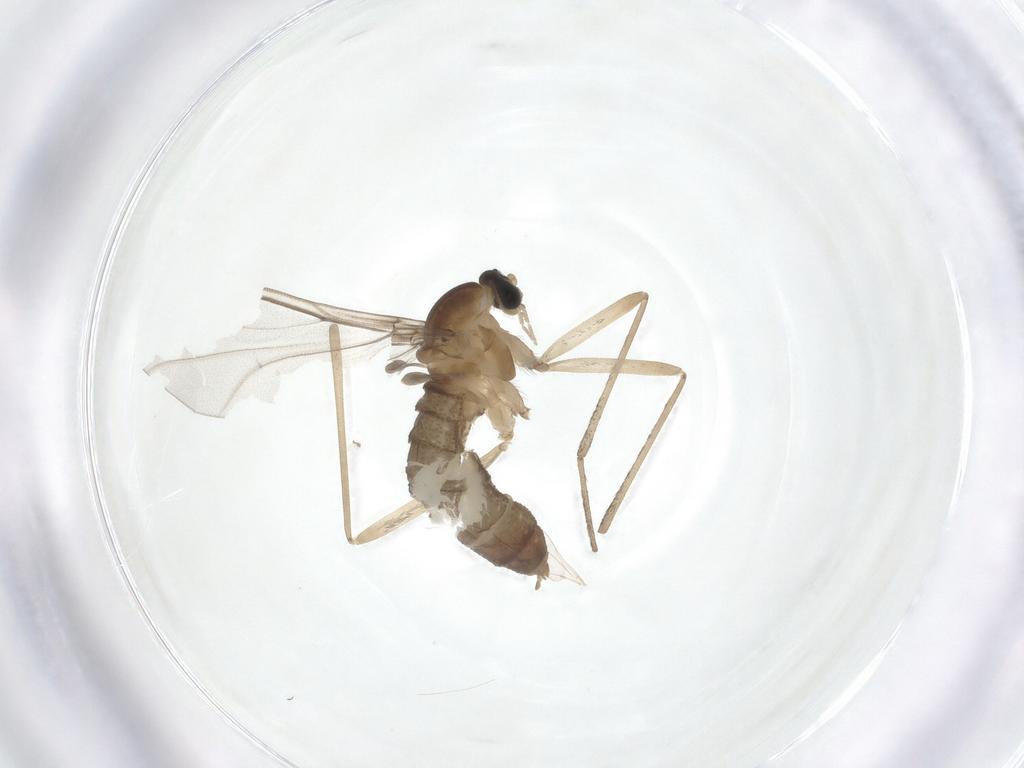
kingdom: Animalia
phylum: Arthropoda
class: Insecta
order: Diptera
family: Cecidomyiidae
